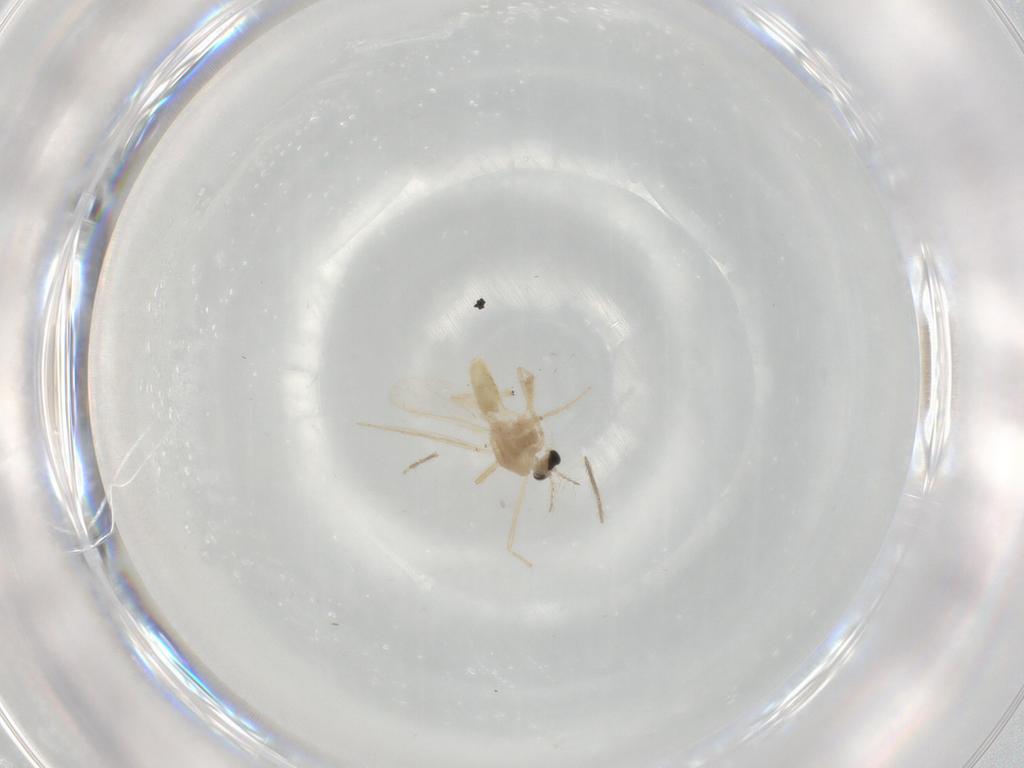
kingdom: Animalia
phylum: Arthropoda
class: Insecta
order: Diptera
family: Chironomidae
